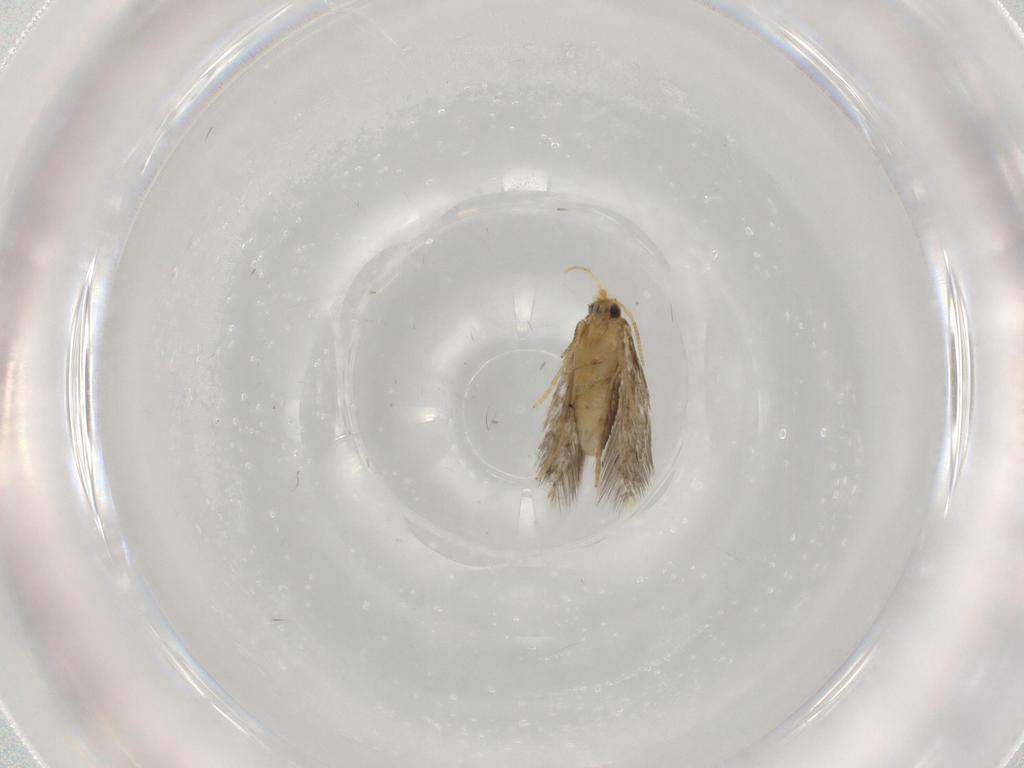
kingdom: Animalia
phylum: Arthropoda
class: Insecta
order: Lepidoptera
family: Copromorphidae
